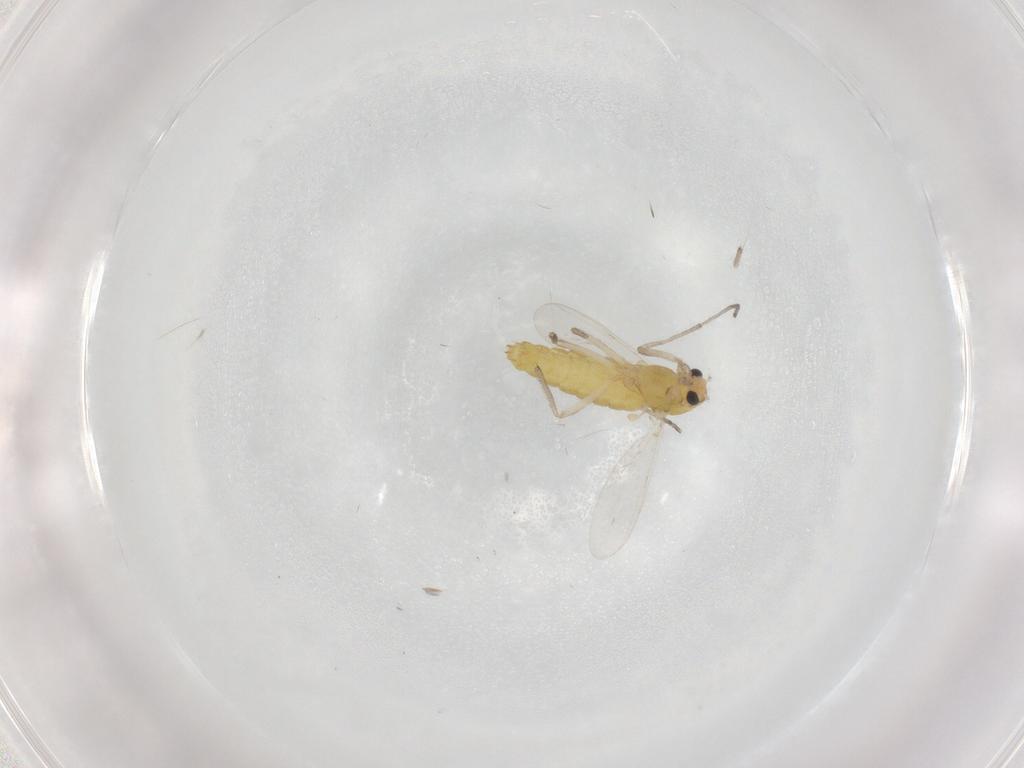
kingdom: Animalia
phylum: Arthropoda
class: Insecta
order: Diptera
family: Chironomidae
